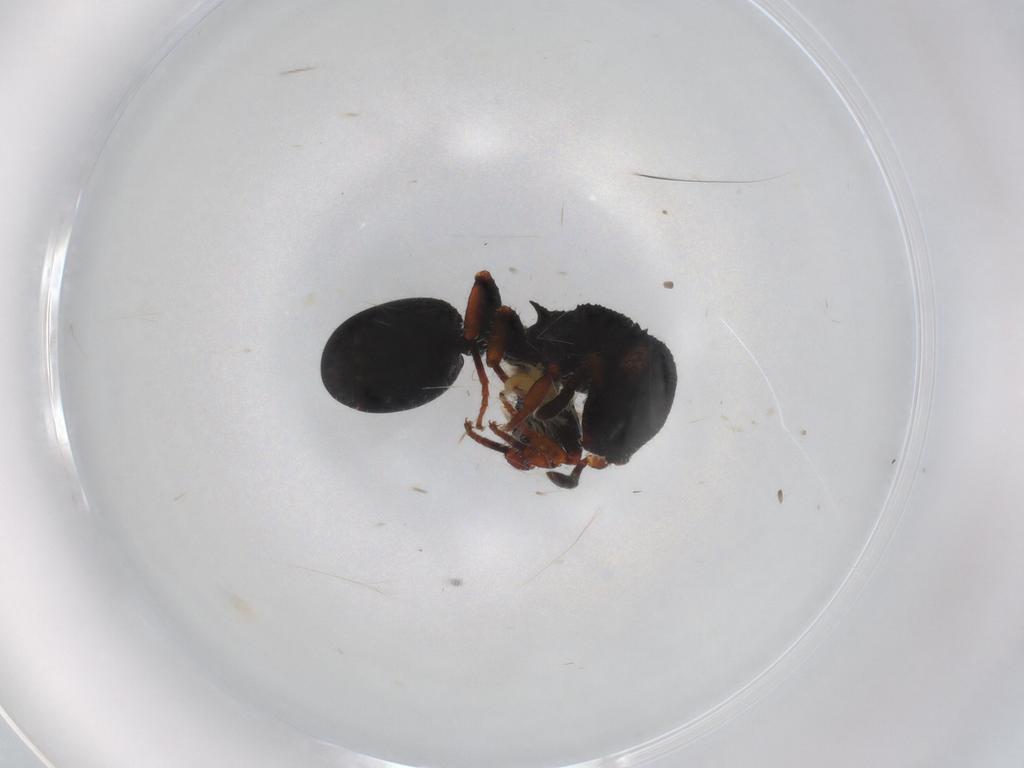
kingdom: Animalia
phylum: Arthropoda
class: Insecta
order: Hymenoptera
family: Formicidae
